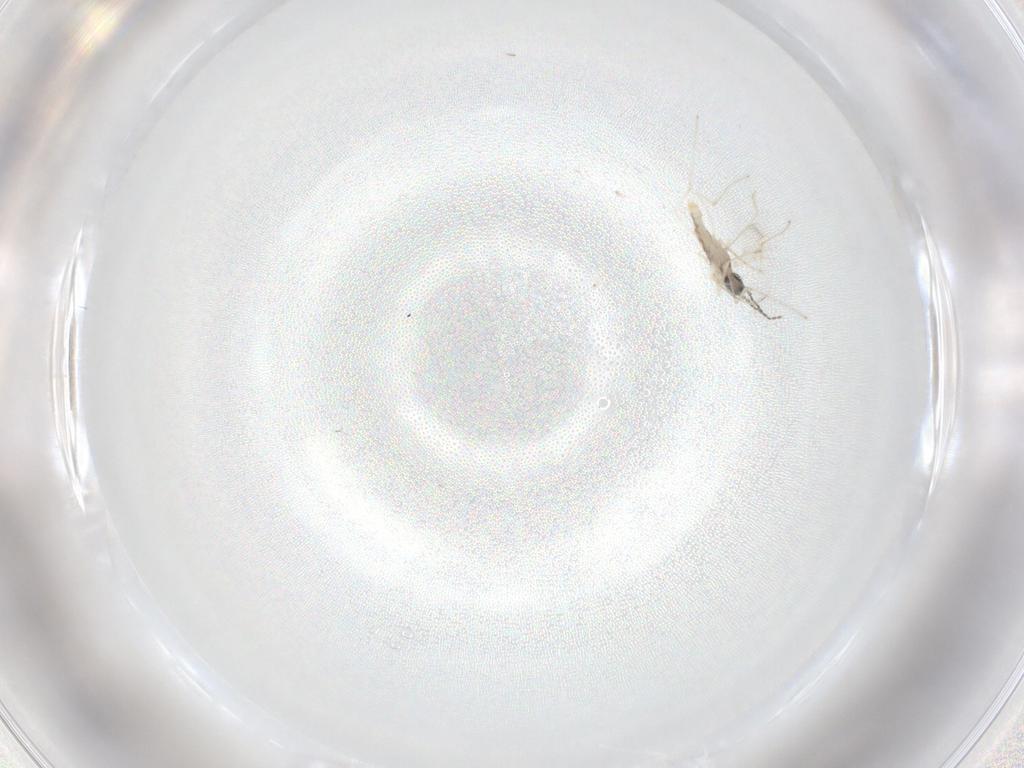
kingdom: Animalia
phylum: Arthropoda
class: Insecta
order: Diptera
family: Cecidomyiidae
